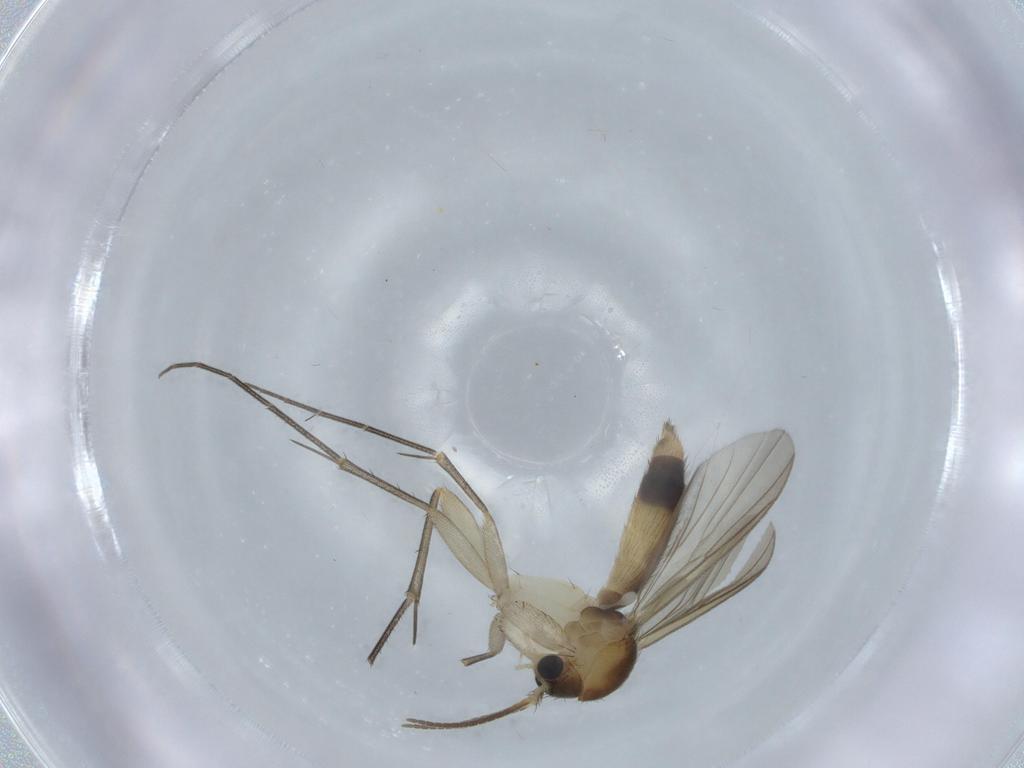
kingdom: Animalia
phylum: Arthropoda
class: Insecta
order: Diptera
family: Mycetophilidae
